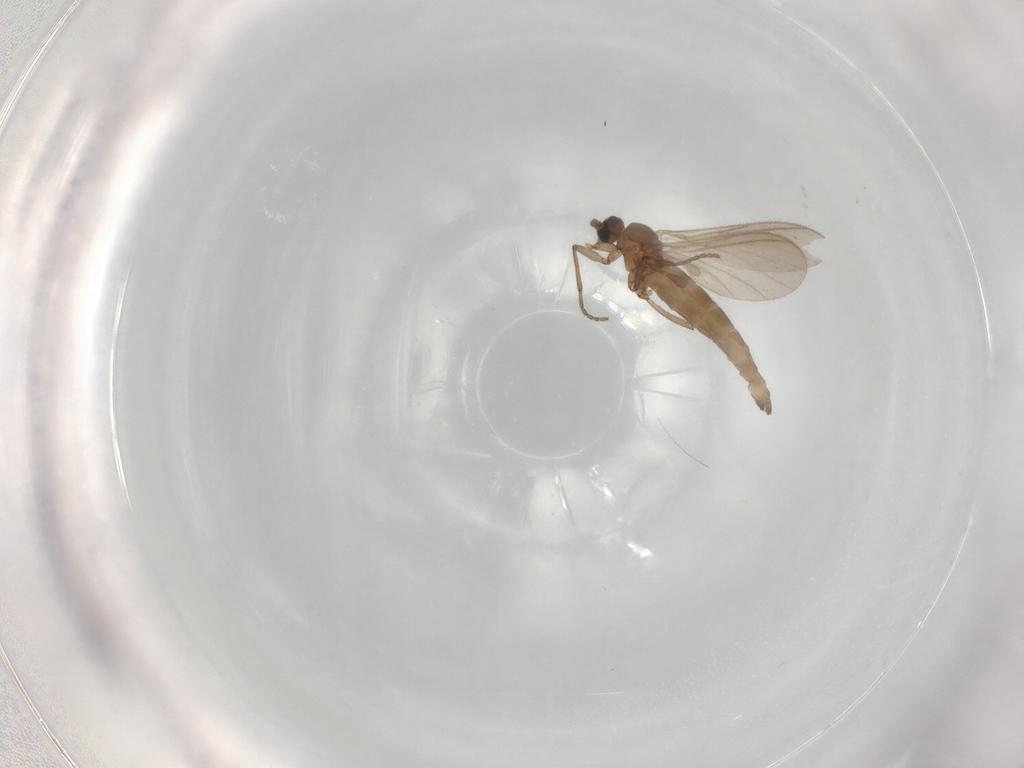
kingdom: Animalia
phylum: Arthropoda
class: Insecta
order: Diptera
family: Sciaridae
